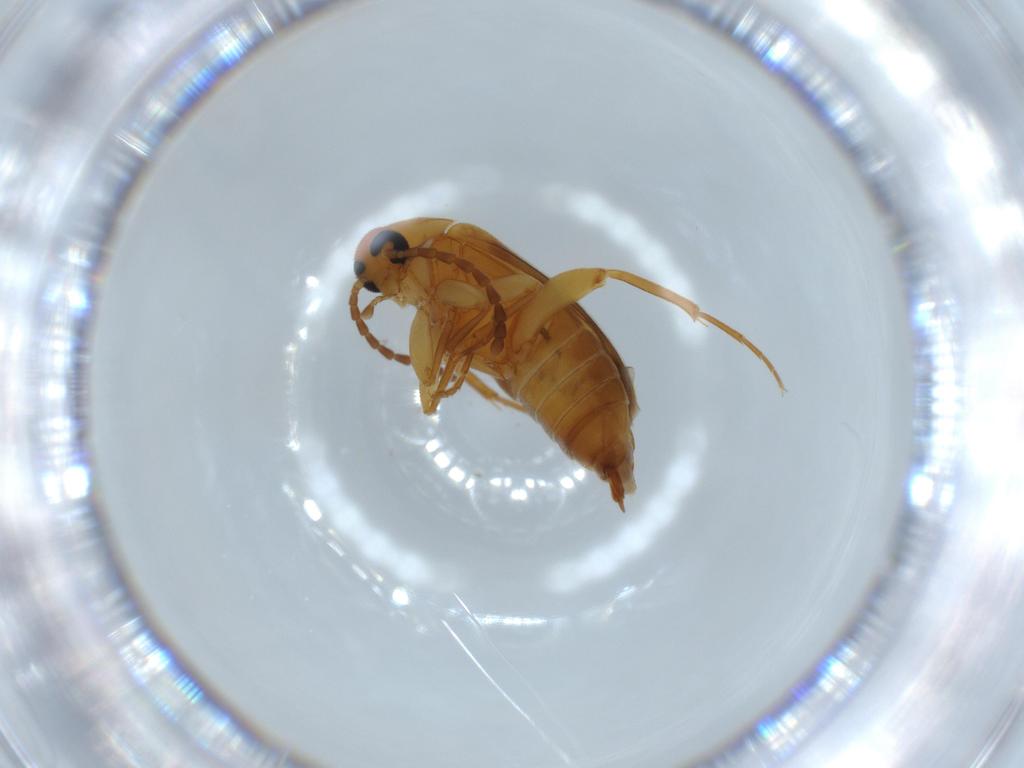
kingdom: Animalia
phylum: Arthropoda
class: Insecta
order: Coleoptera
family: Scraptiidae
